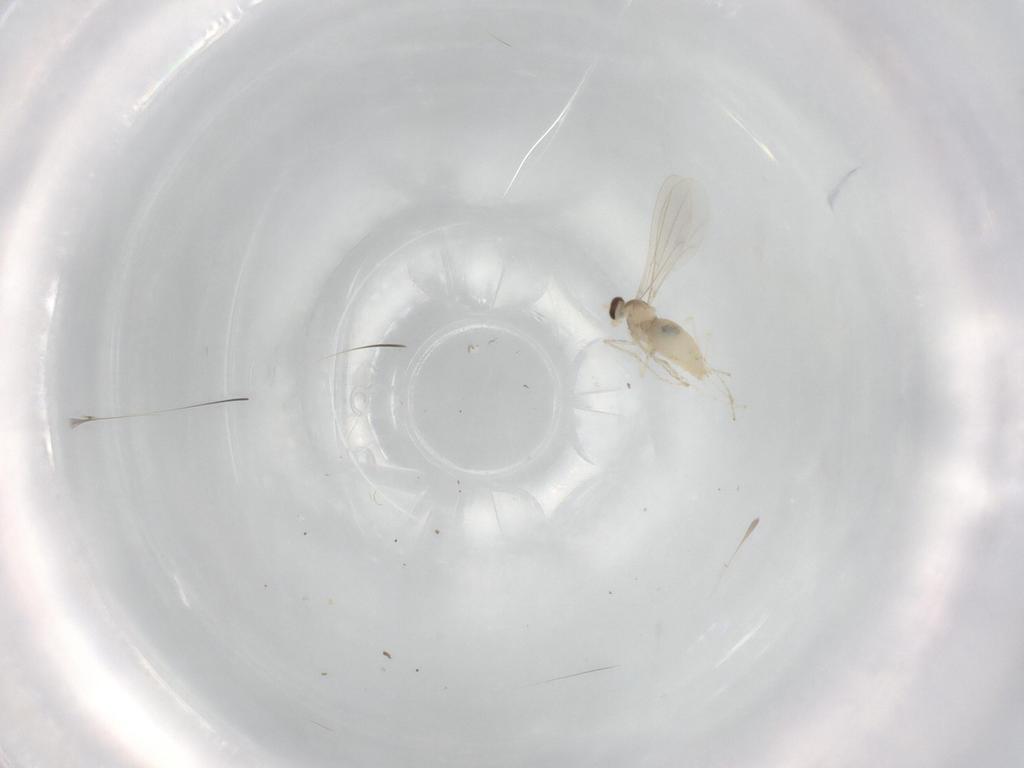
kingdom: Animalia
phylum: Arthropoda
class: Insecta
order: Diptera
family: Cecidomyiidae
